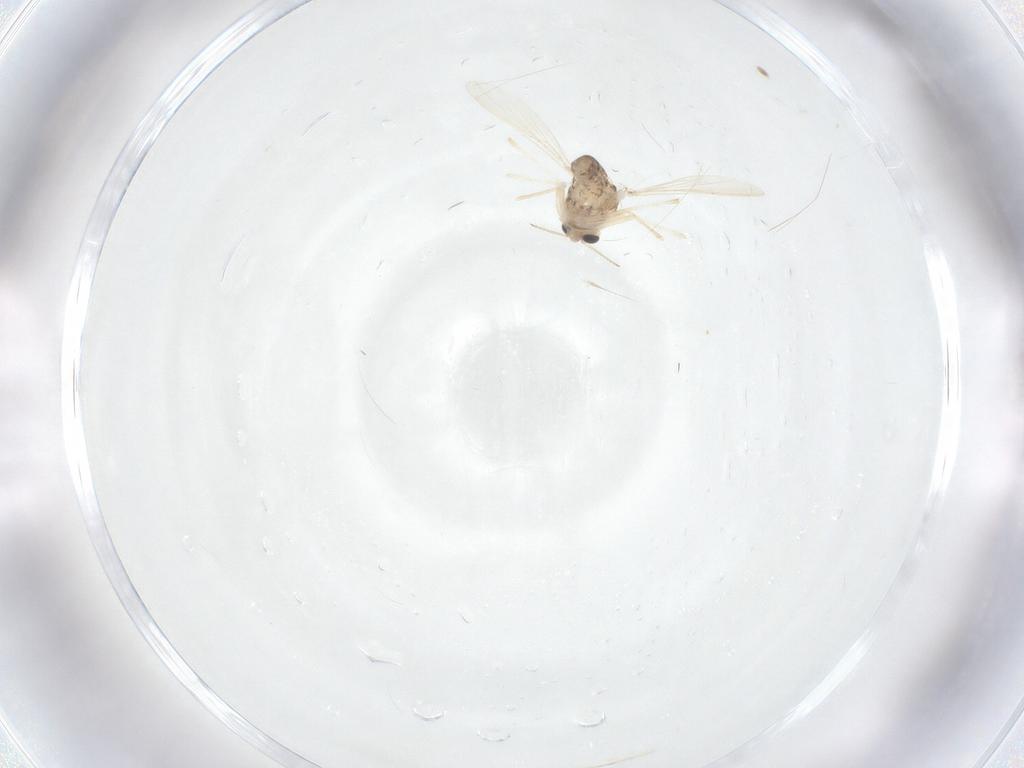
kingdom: Animalia
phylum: Arthropoda
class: Insecta
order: Diptera
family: Chironomidae
